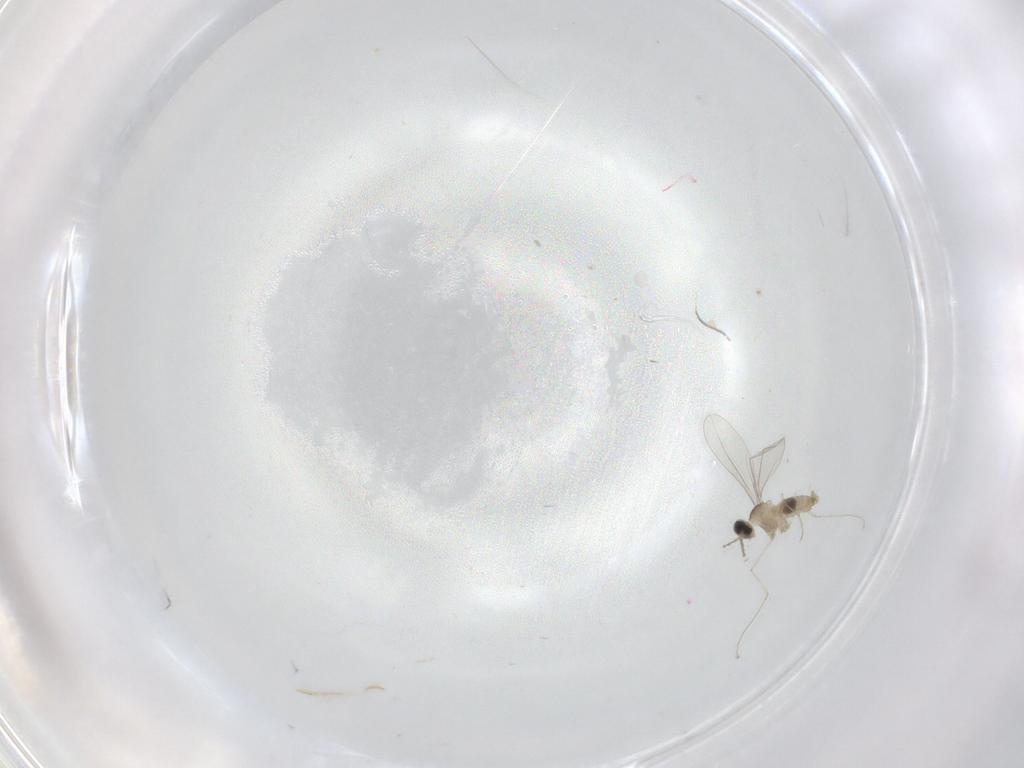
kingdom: Animalia
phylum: Arthropoda
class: Insecta
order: Diptera
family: Cecidomyiidae
